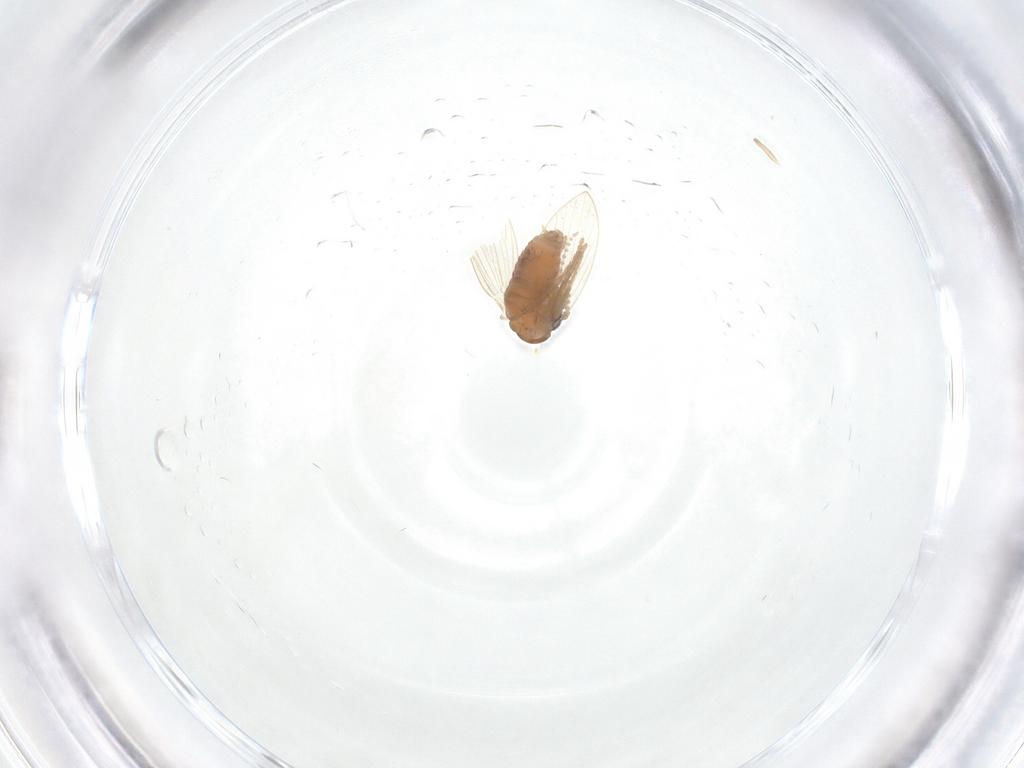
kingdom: Animalia
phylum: Arthropoda
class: Insecta
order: Diptera
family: Psychodidae
